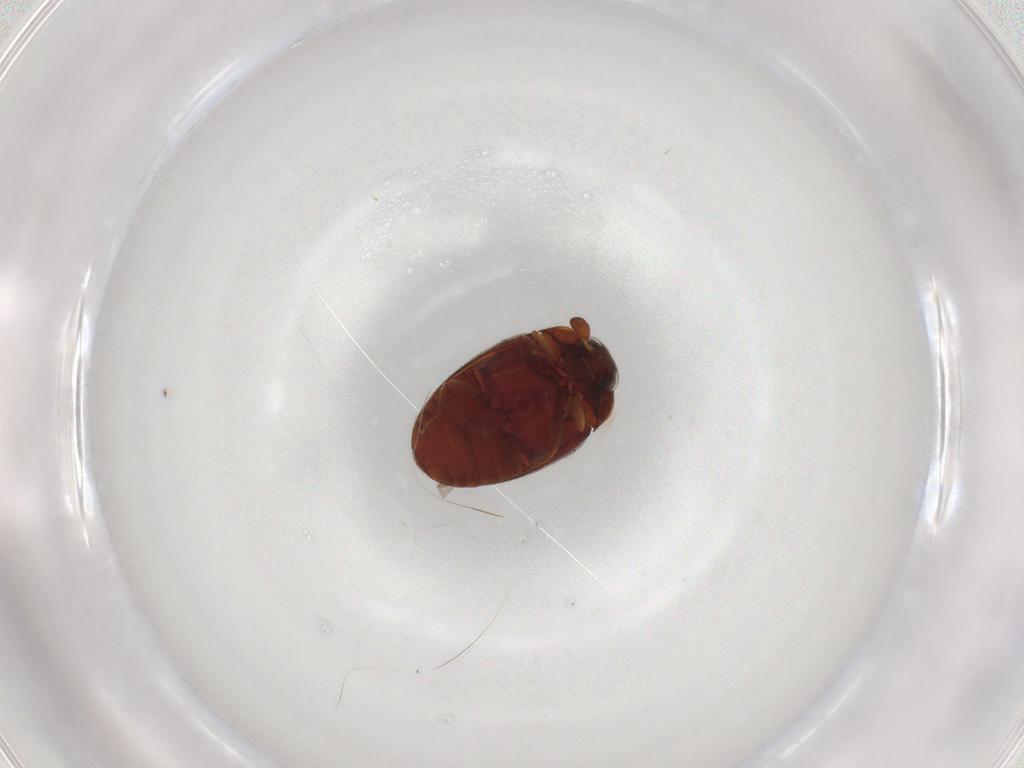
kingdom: Animalia
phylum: Arthropoda
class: Insecta
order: Coleoptera
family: Dermestidae
